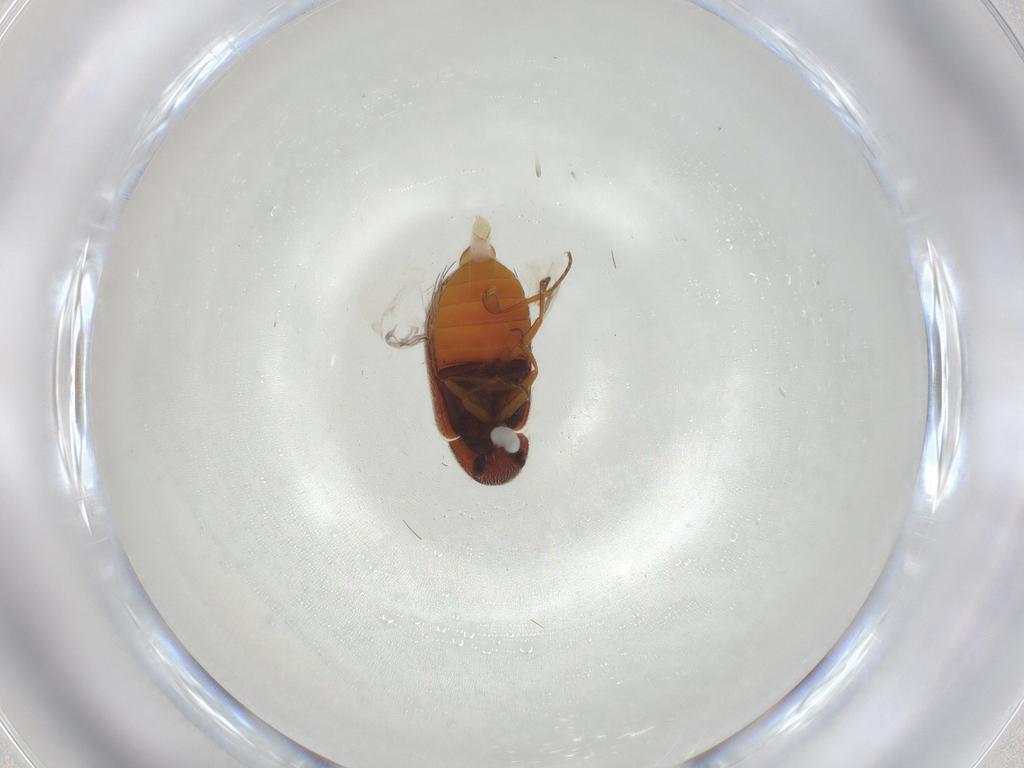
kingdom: Animalia
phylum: Arthropoda
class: Insecta
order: Coleoptera
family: Rhadalidae
